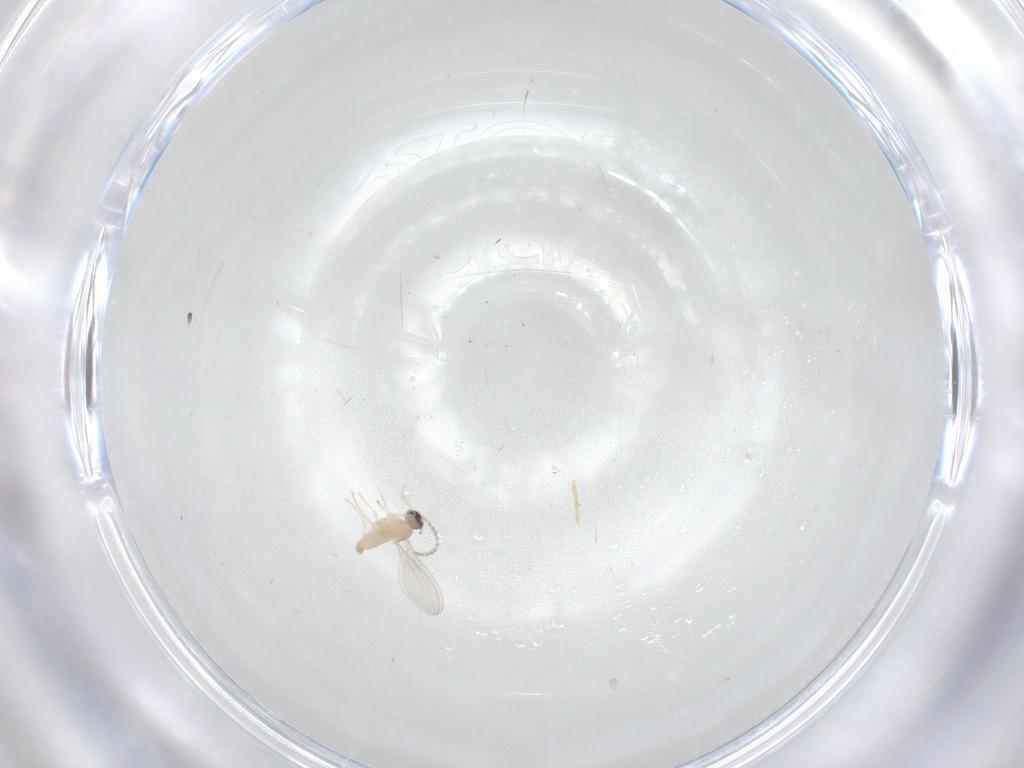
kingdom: Animalia
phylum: Arthropoda
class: Insecta
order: Diptera
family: Cecidomyiidae
